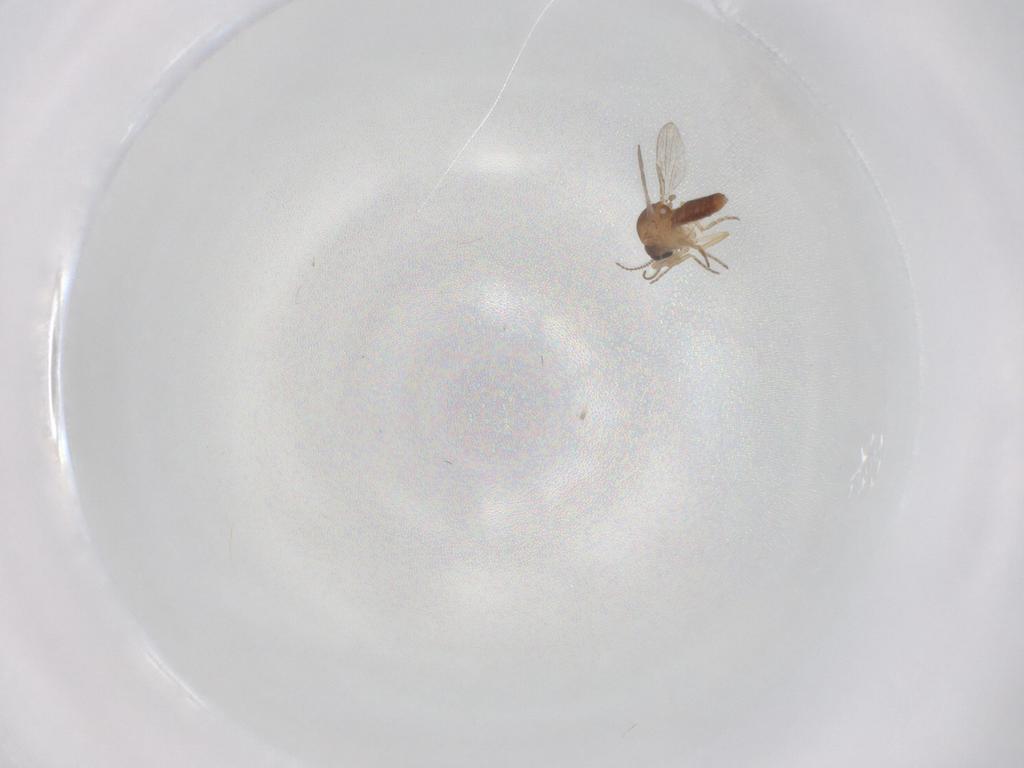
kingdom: Animalia
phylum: Arthropoda
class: Insecta
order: Diptera
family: Ceratopogonidae
